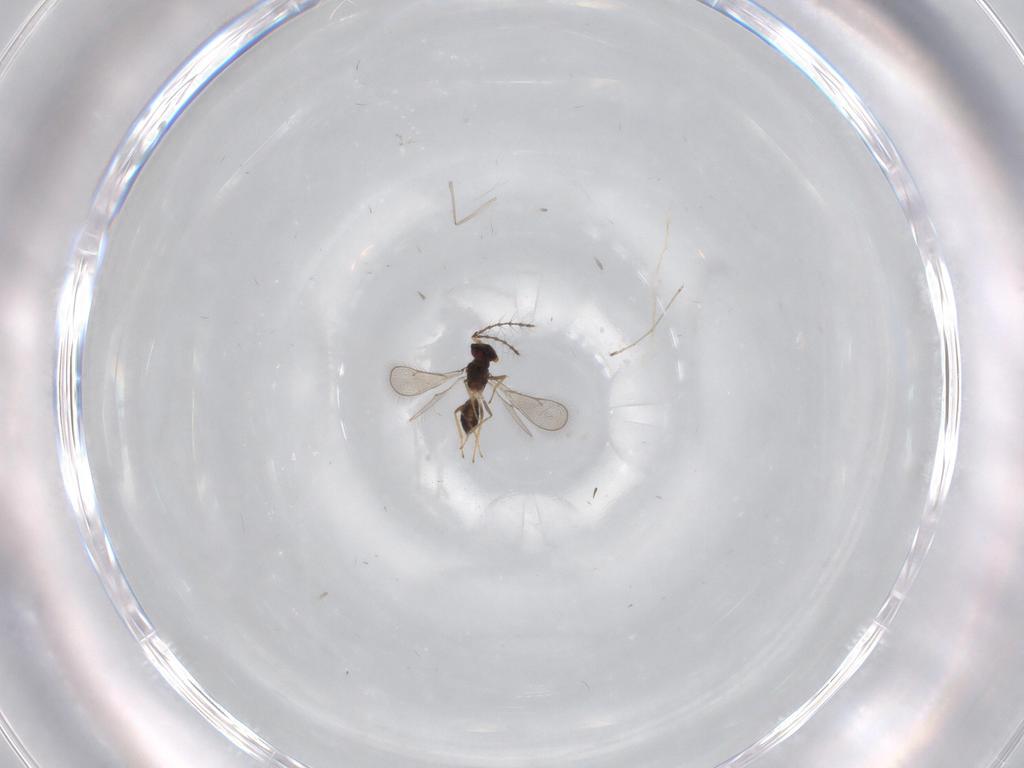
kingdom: Animalia
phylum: Arthropoda
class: Insecta
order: Hymenoptera
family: Eulophidae
